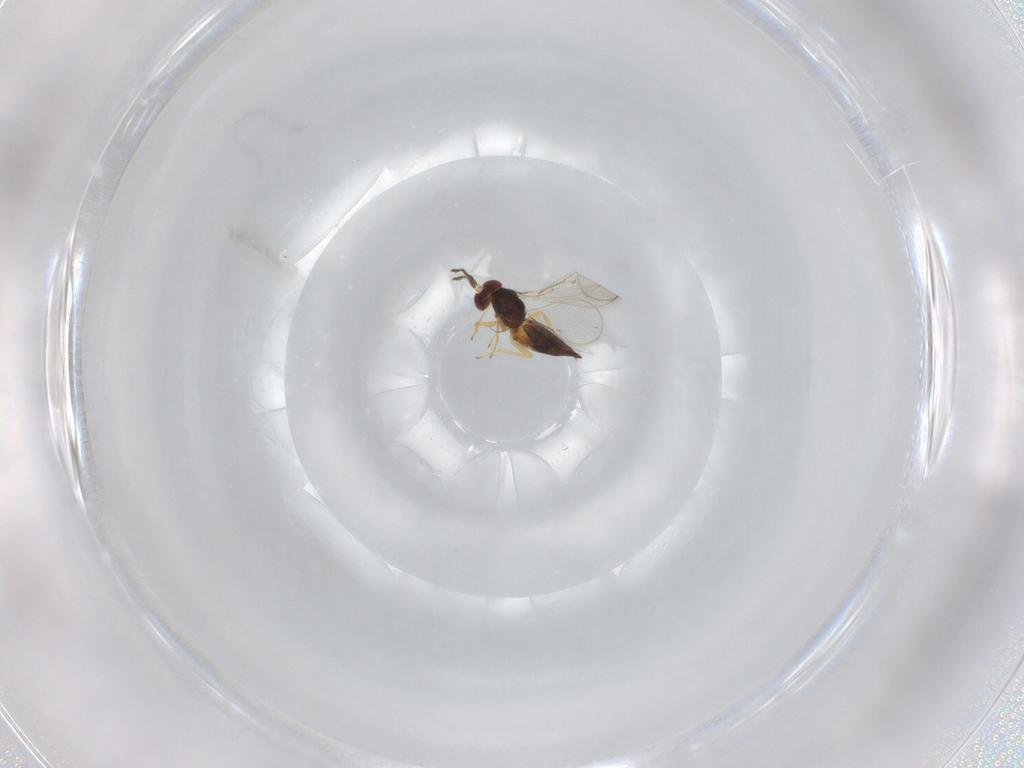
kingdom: Animalia
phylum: Arthropoda
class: Insecta
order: Hymenoptera
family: Eulophidae
